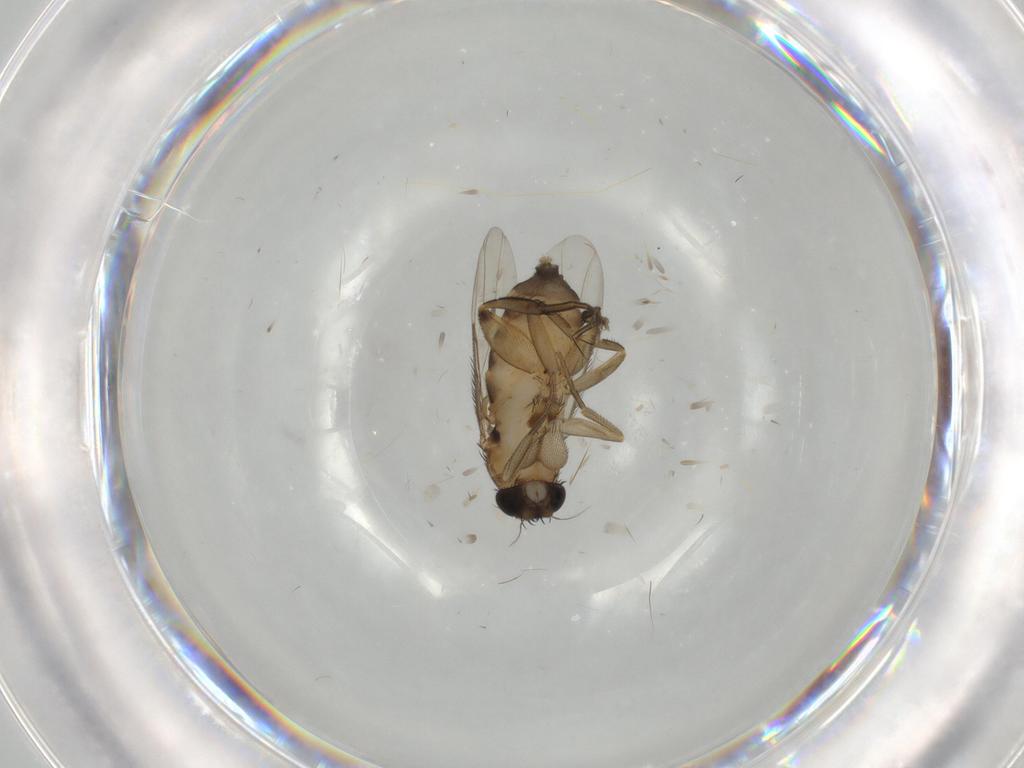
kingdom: Animalia
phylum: Arthropoda
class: Insecta
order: Diptera
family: Phoridae
